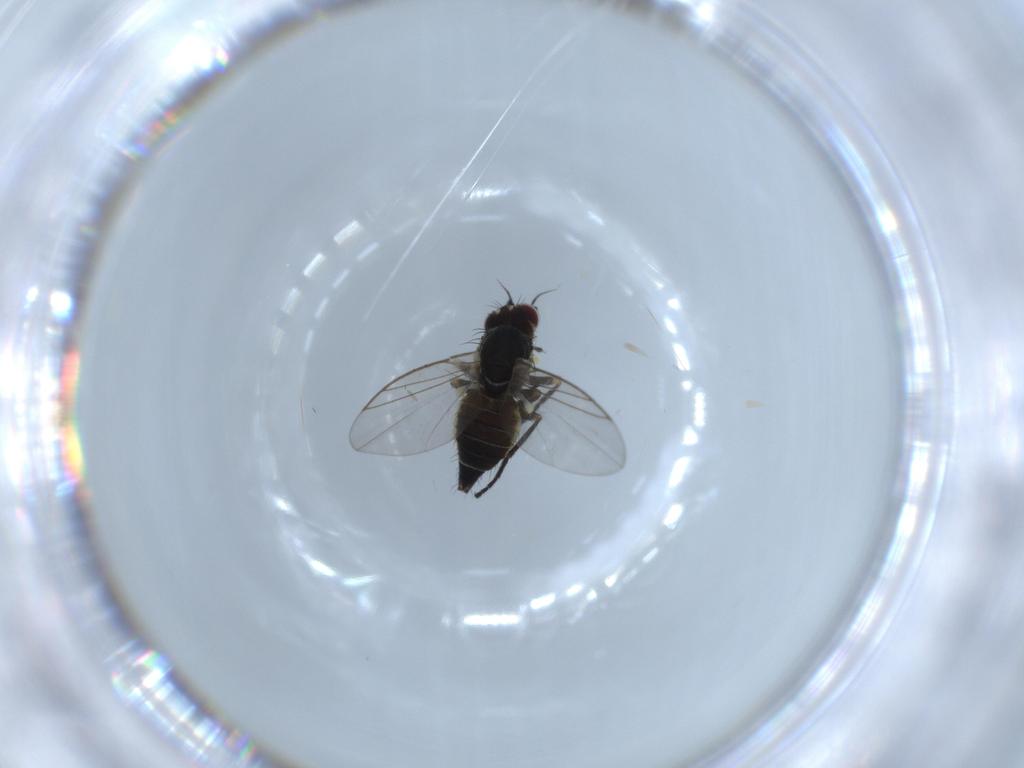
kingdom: Animalia
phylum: Arthropoda
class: Insecta
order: Diptera
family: Agromyzidae
